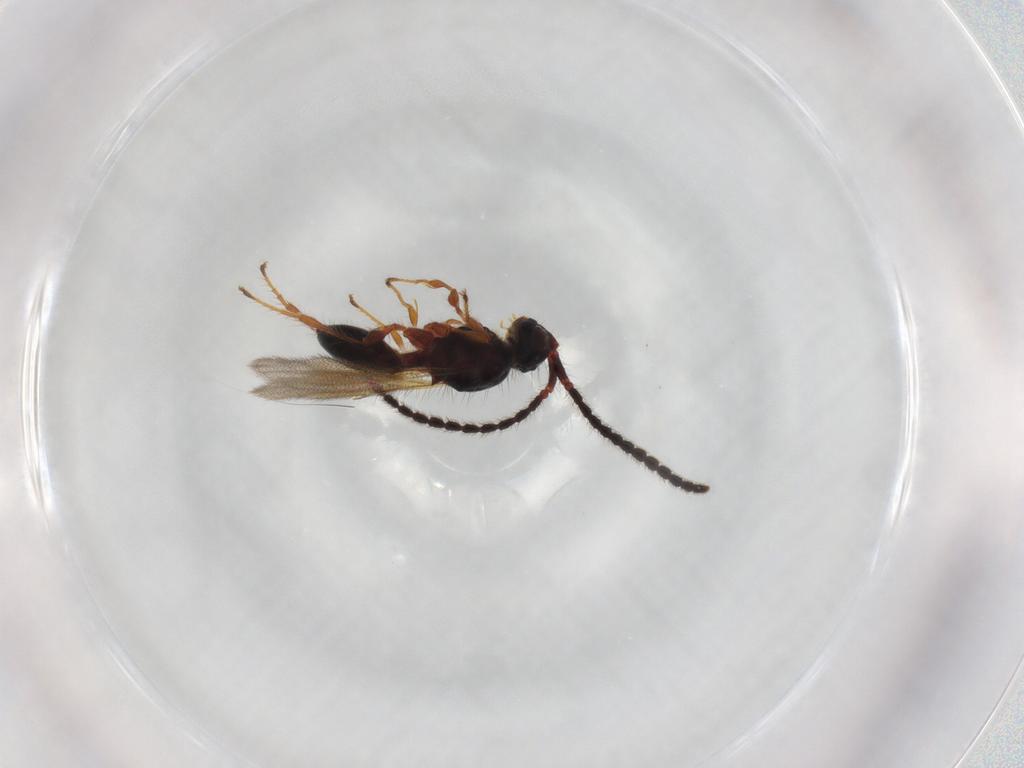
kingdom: Animalia
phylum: Arthropoda
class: Insecta
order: Hymenoptera
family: Diapriidae
